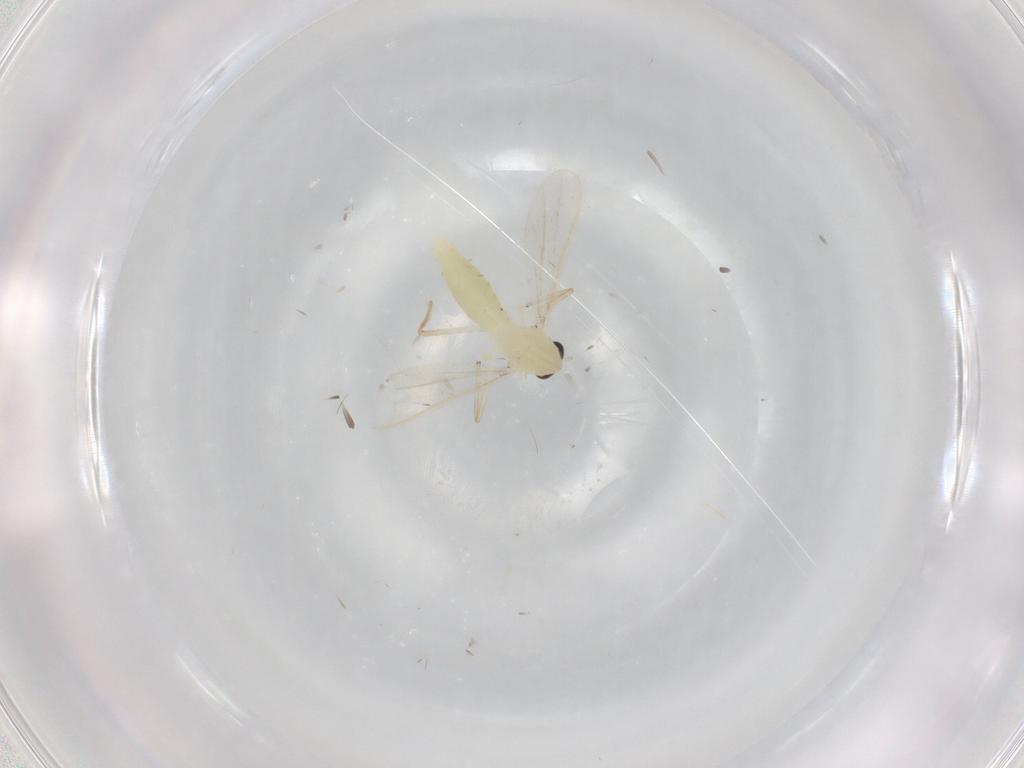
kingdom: Animalia
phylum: Arthropoda
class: Insecta
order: Diptera
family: Chironomidae
